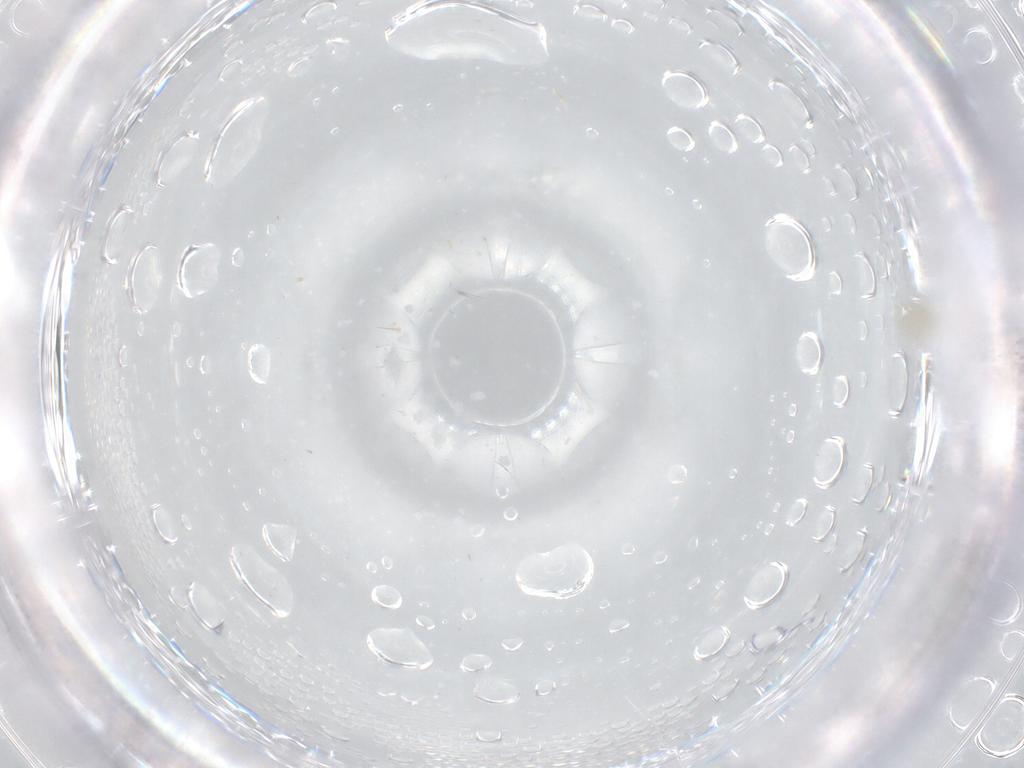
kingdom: Animalia
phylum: Arthropoda
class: Insecta
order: Diptera
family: Cecidomyiidae
